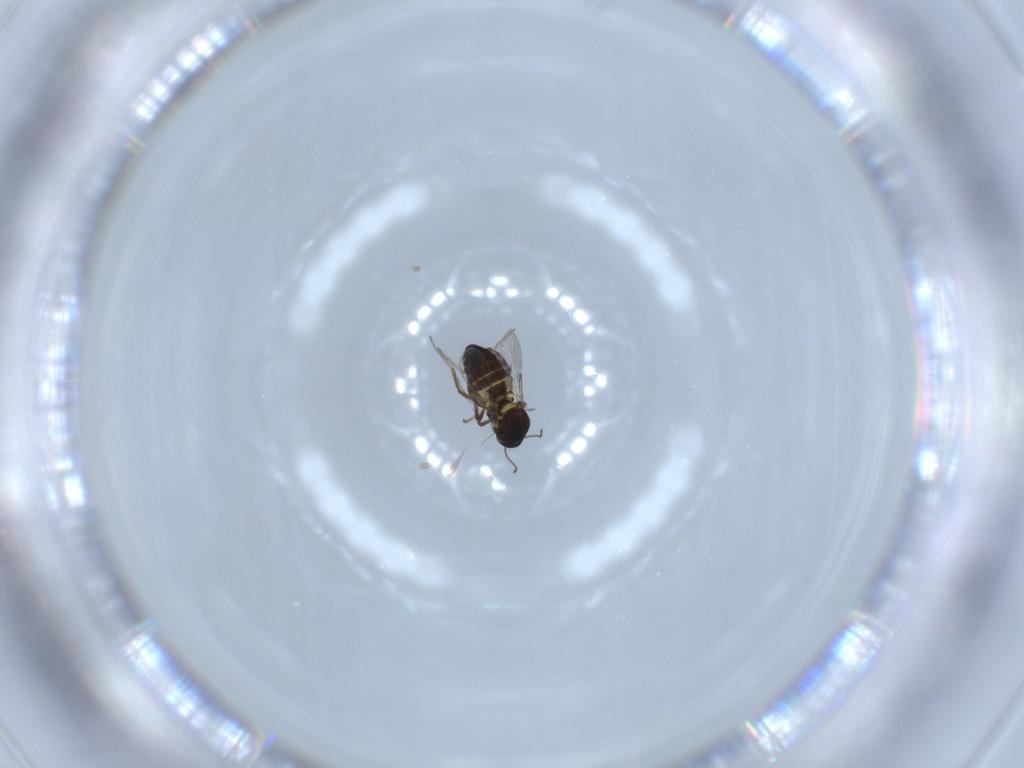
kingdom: Animalia
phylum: Arthropoda
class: Insecta
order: Diptera
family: Ceratopogonidae
